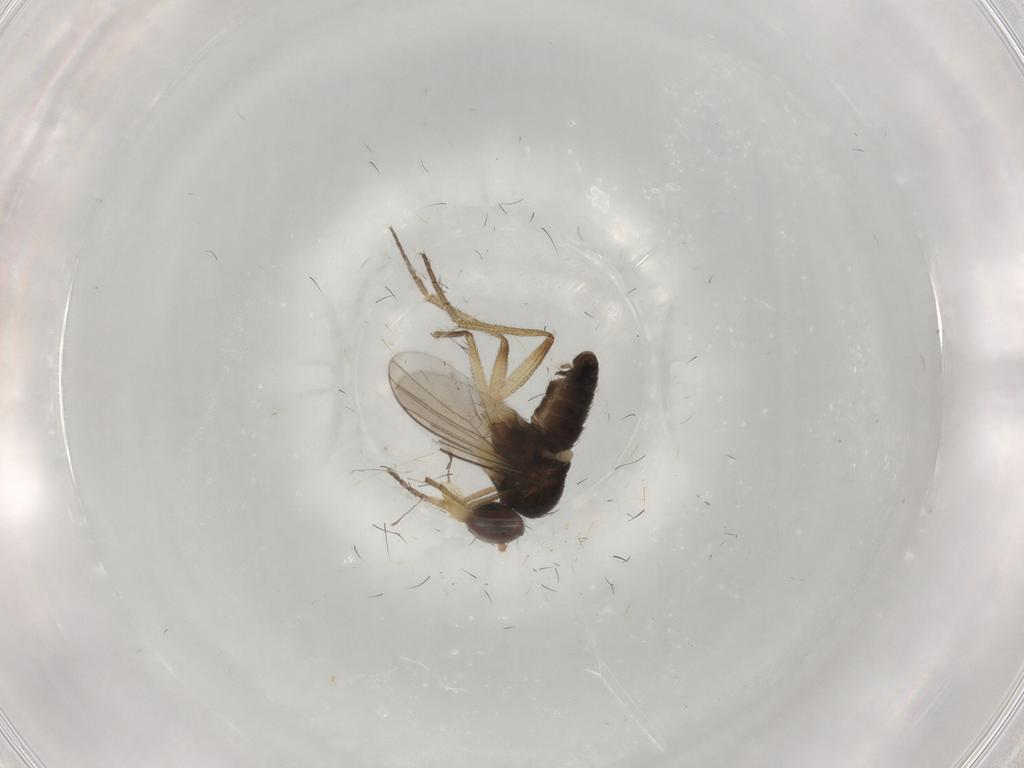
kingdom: Animalia
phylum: Arthropoda
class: Insecta
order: Diptera
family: Dolichopodidae
